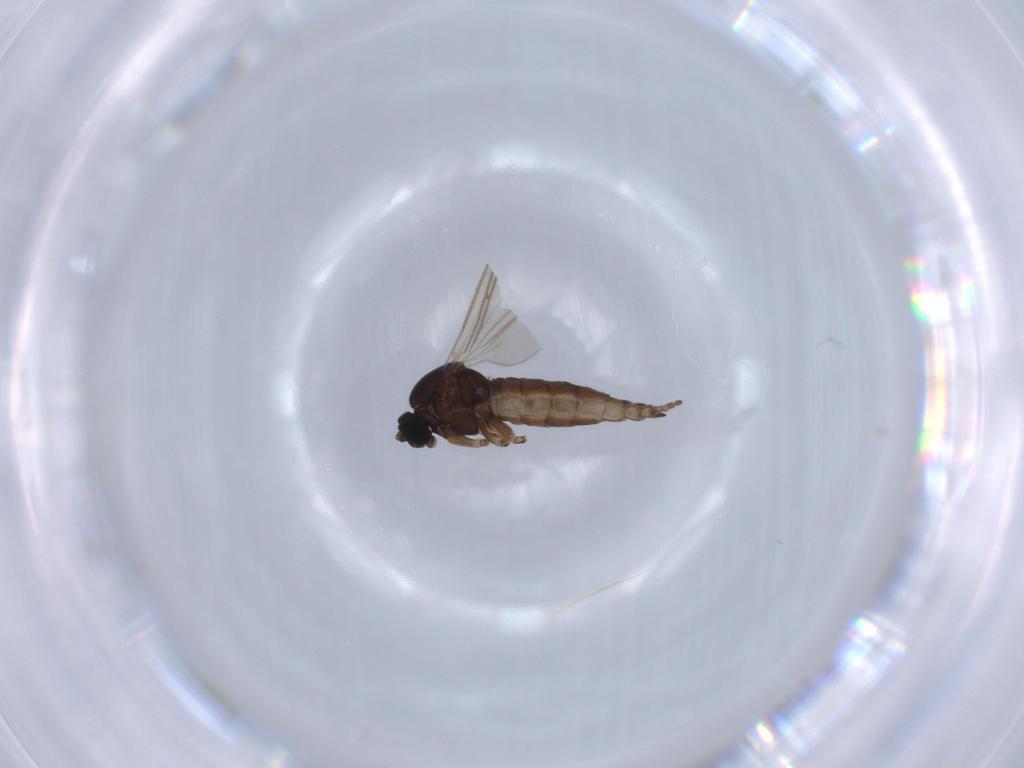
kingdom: Animalia
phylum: Arthropoda
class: Insecta
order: Diptera
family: Sciaridae
